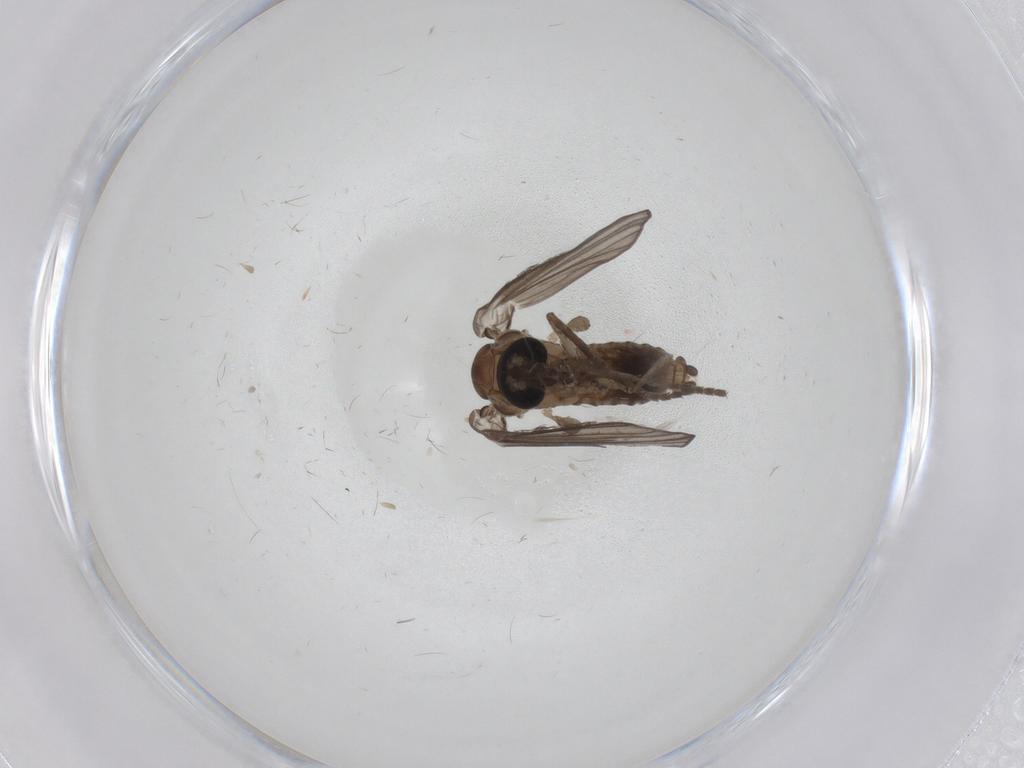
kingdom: Animalia
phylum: Arthropoda
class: Insecta
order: Diptera
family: Psychodidae
